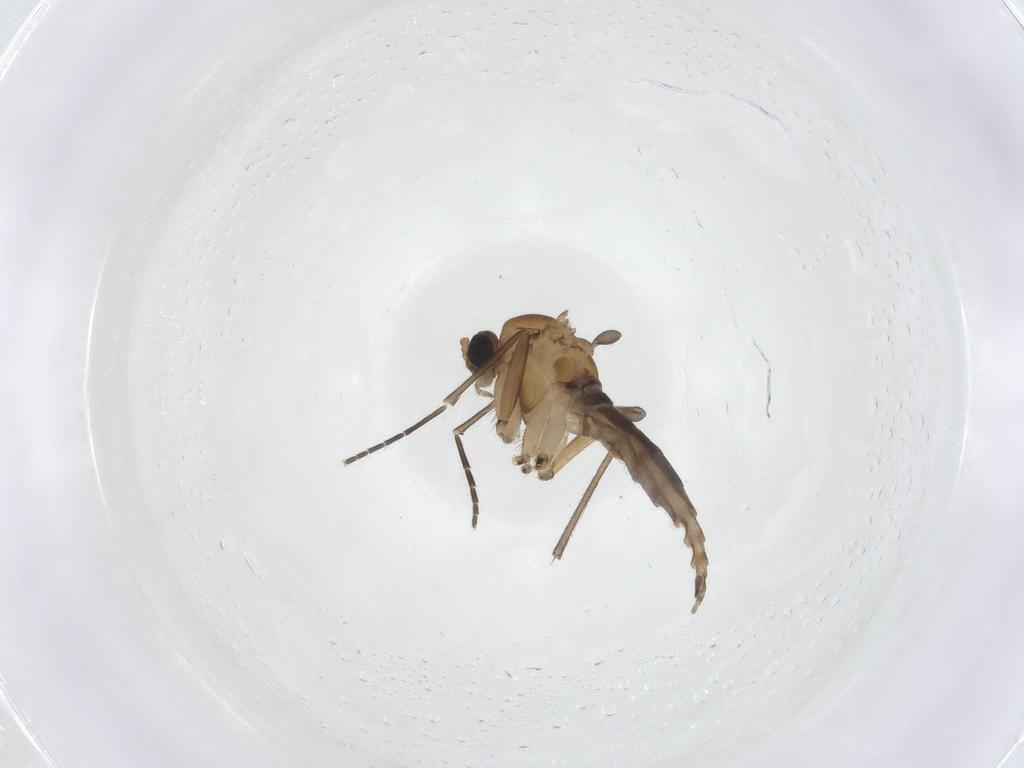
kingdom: Animalia
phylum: Arthropoda
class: Insecta
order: Diptera
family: Sciaridae
